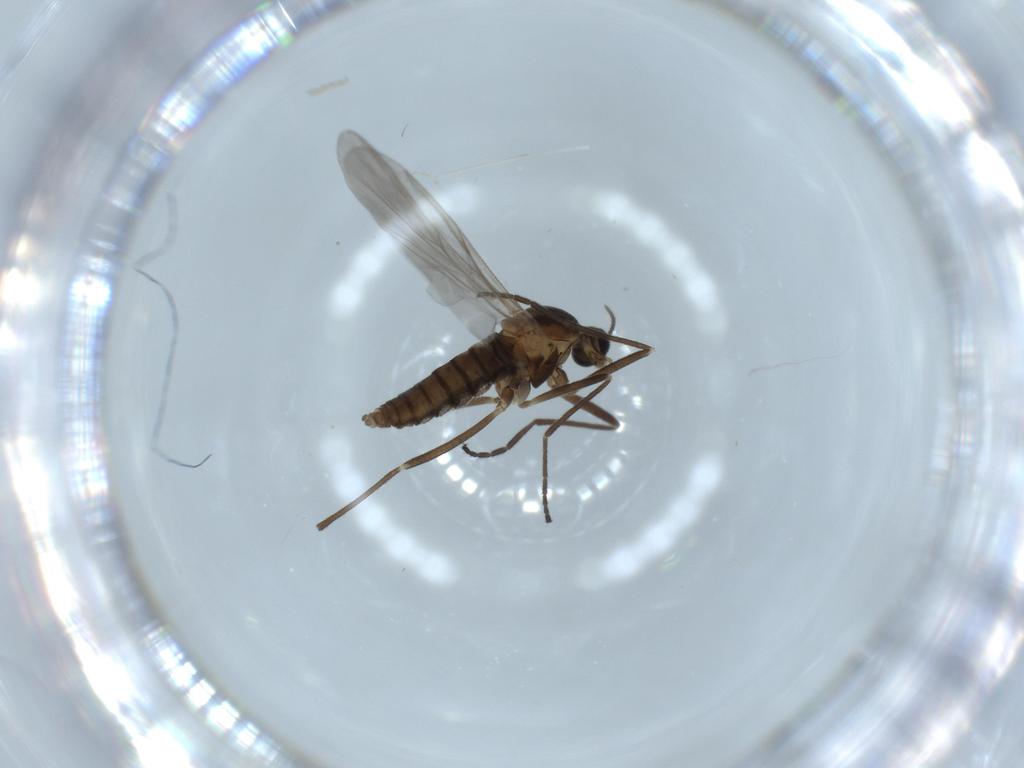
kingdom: Animalia
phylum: Arthropoda
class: Insecta
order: Diptera
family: Cecidomyiidae
